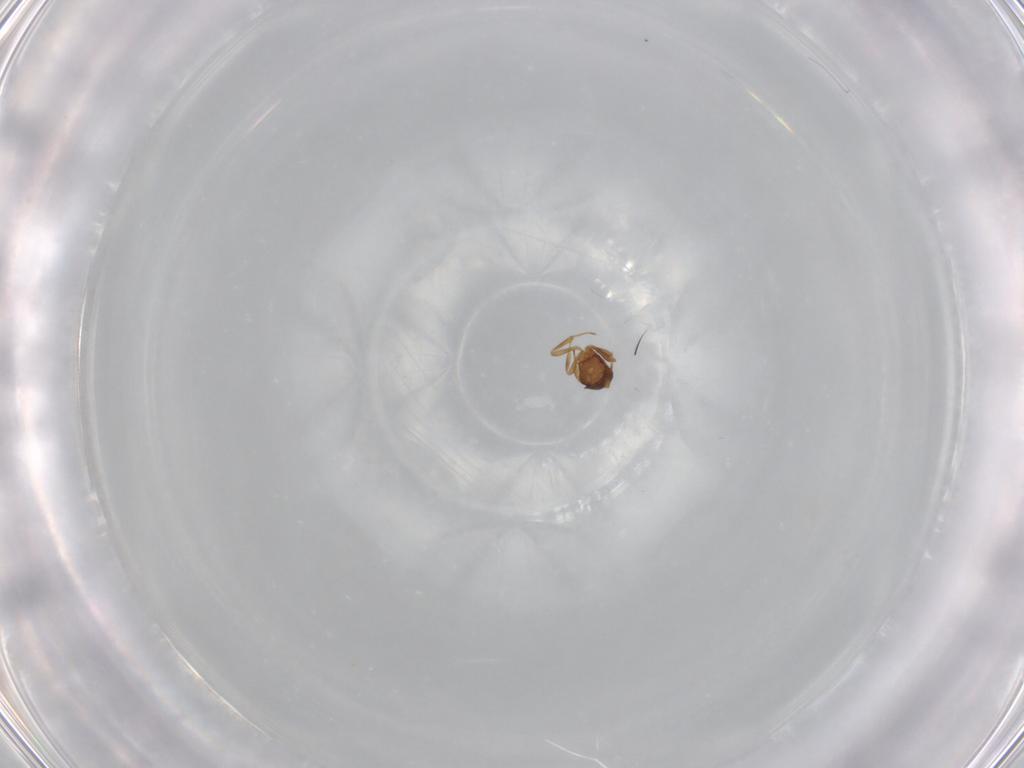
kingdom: Animalia
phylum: Arthropoda
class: Insecta
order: Hymenoptera
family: Scelionidae
